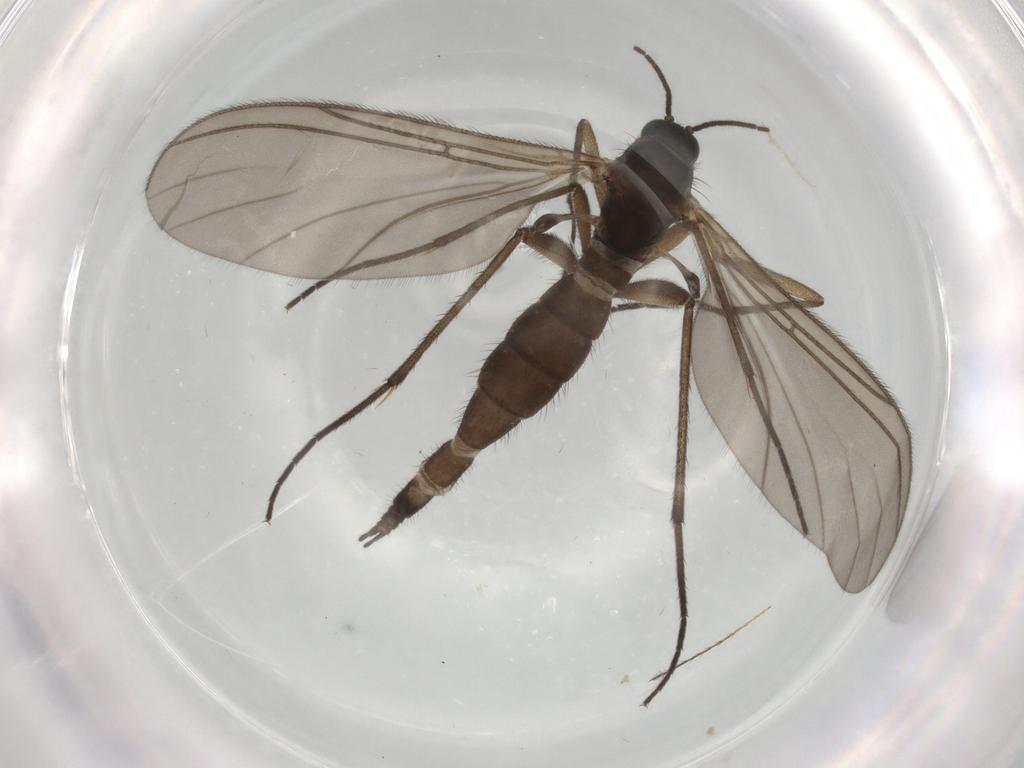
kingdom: Animalia
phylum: Arthropoda
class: Insecta
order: Diptera
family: Sciaridae
